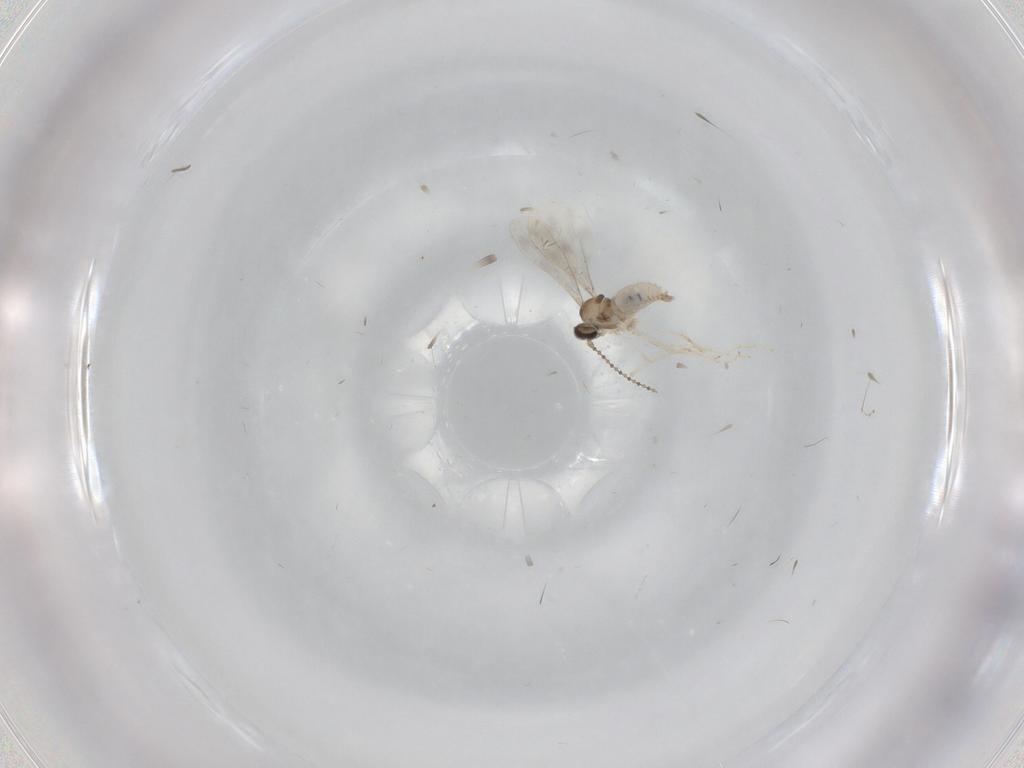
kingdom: Animalia
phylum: Arthropoda
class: Insecta
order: Diptera
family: Cecidomyiidae
